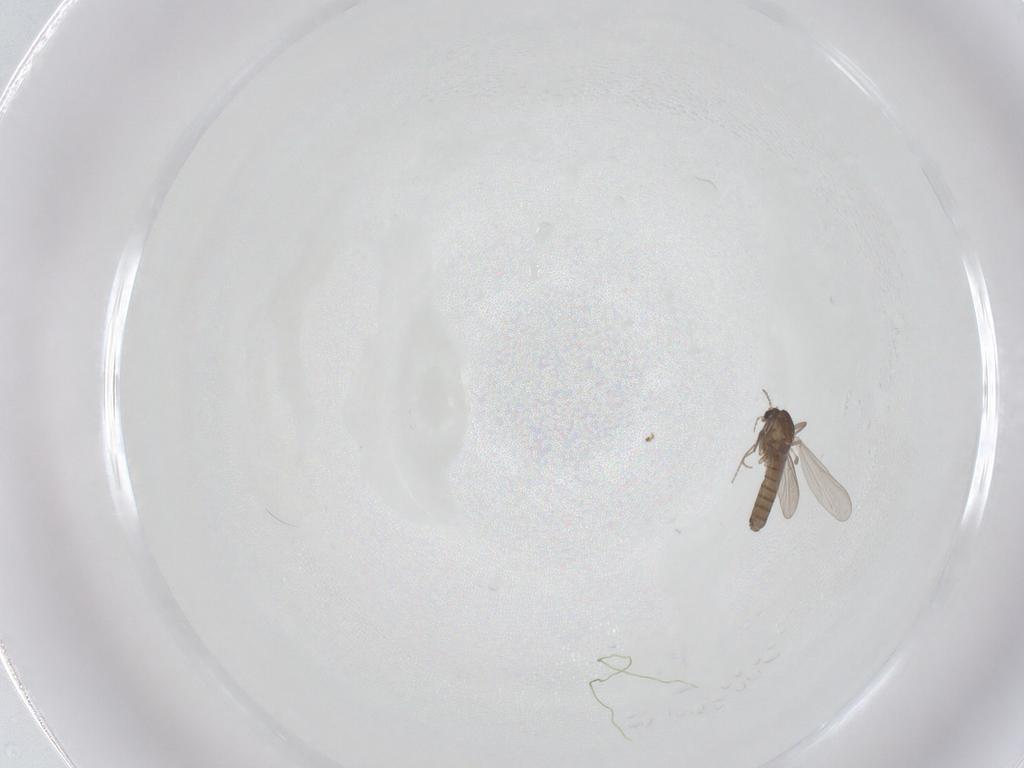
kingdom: Animalia
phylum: Arthropoda
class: Insecta
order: Diptera
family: Chironomidae
